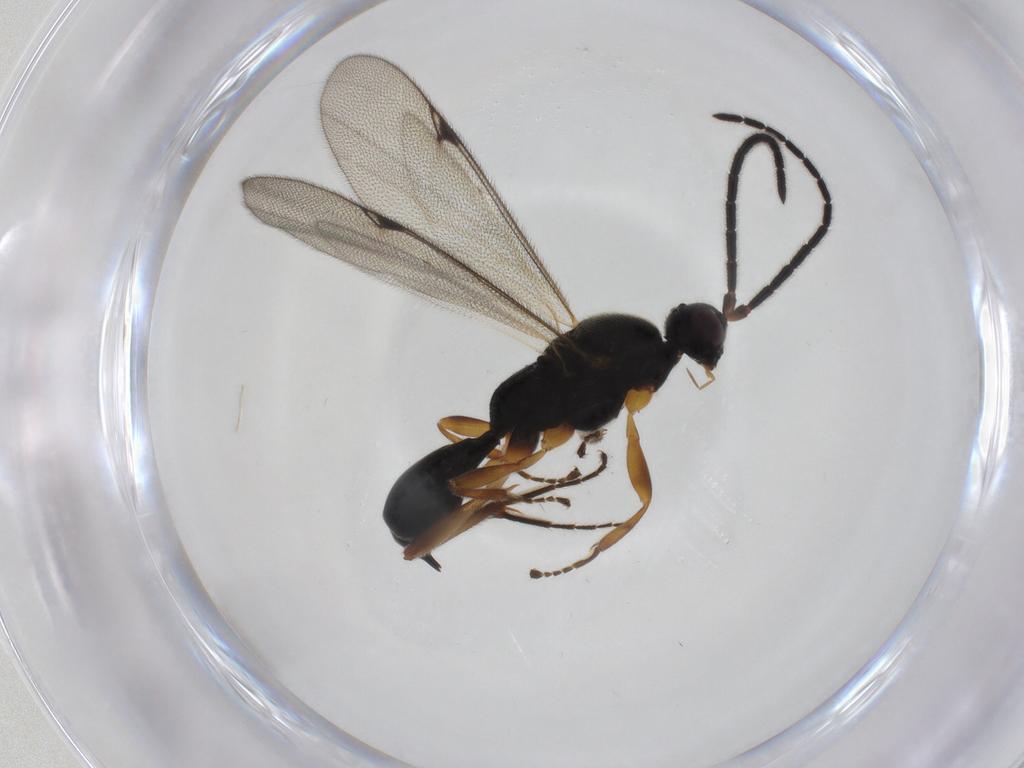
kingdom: Animalia
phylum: Arthropoda
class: Insecta
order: Hymenoptera
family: Proctotrupidae
